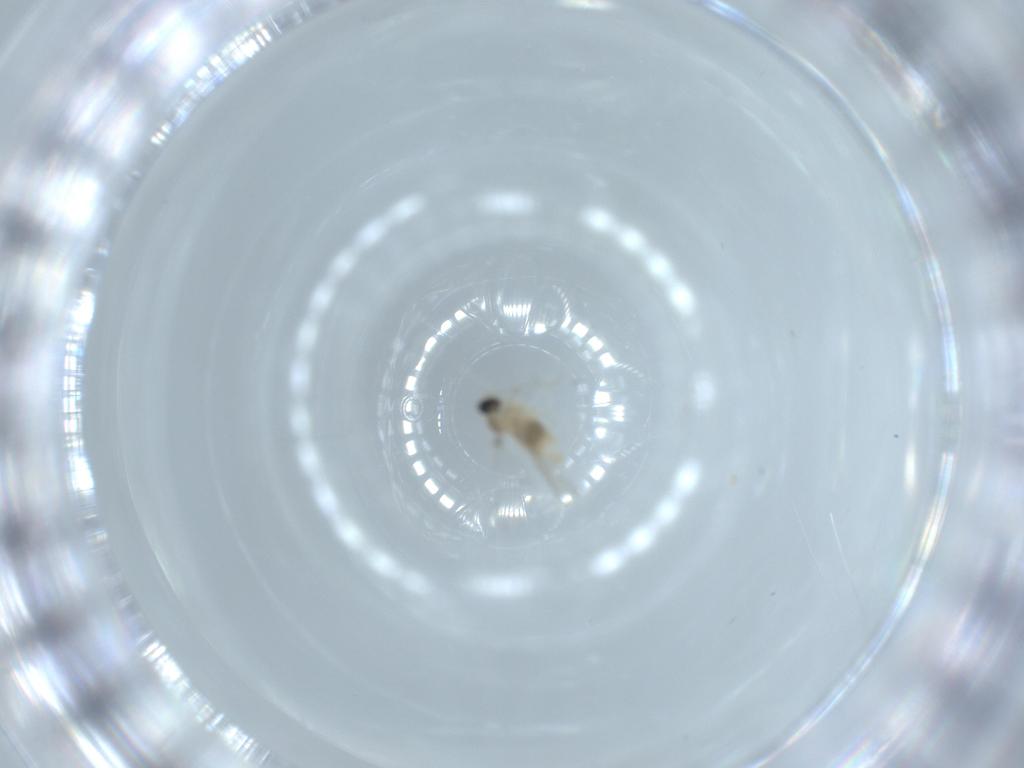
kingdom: Animalia
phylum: Arthropoda
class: Insecta
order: Diptera
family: Cecidomyiidae
